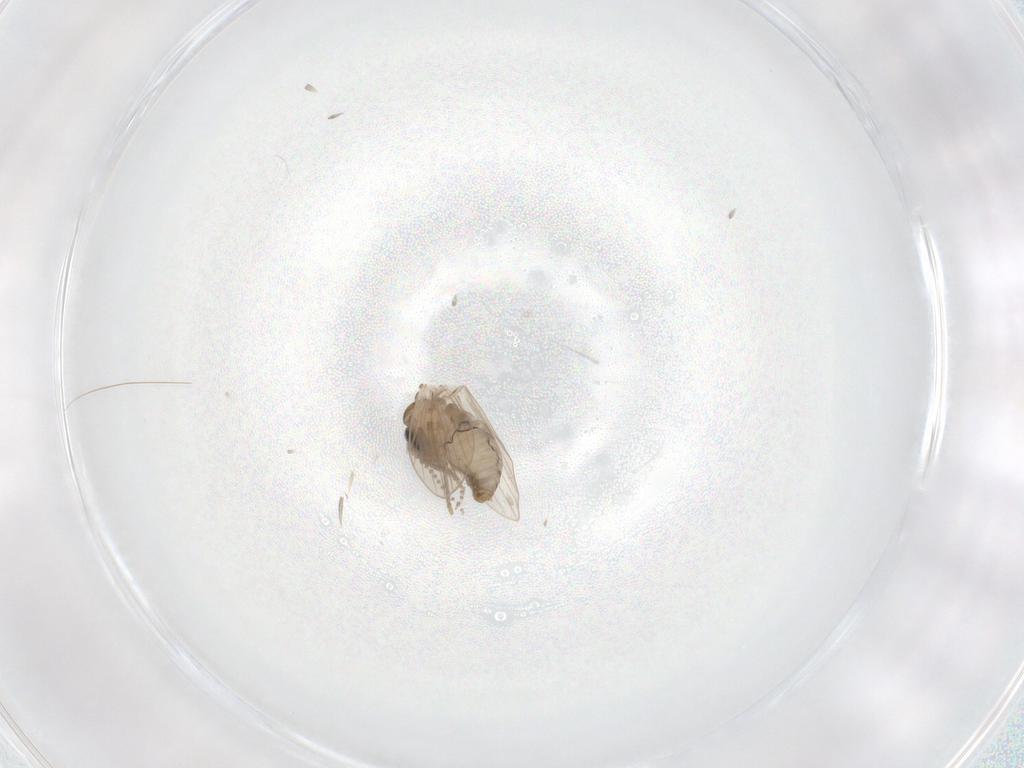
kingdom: Animalia
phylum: Arthropoda
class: Insecta
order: Diptera
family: Psychodidae
